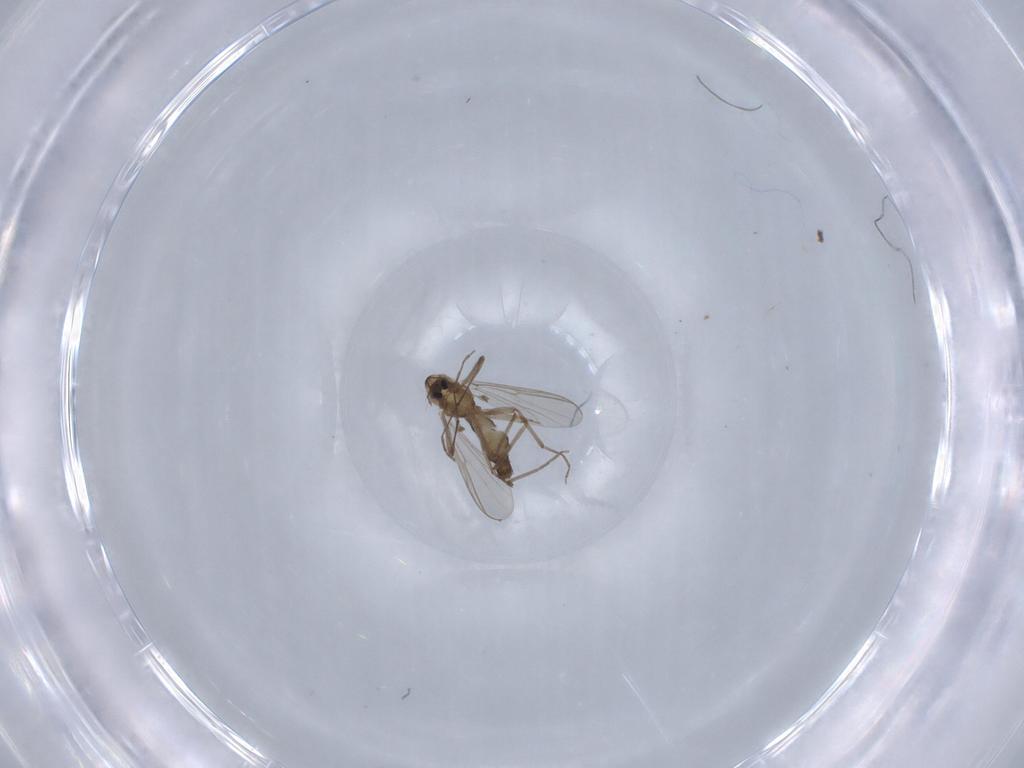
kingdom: Animalia
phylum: Arthropoda
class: Insecta
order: Diptera
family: Chironomidae
